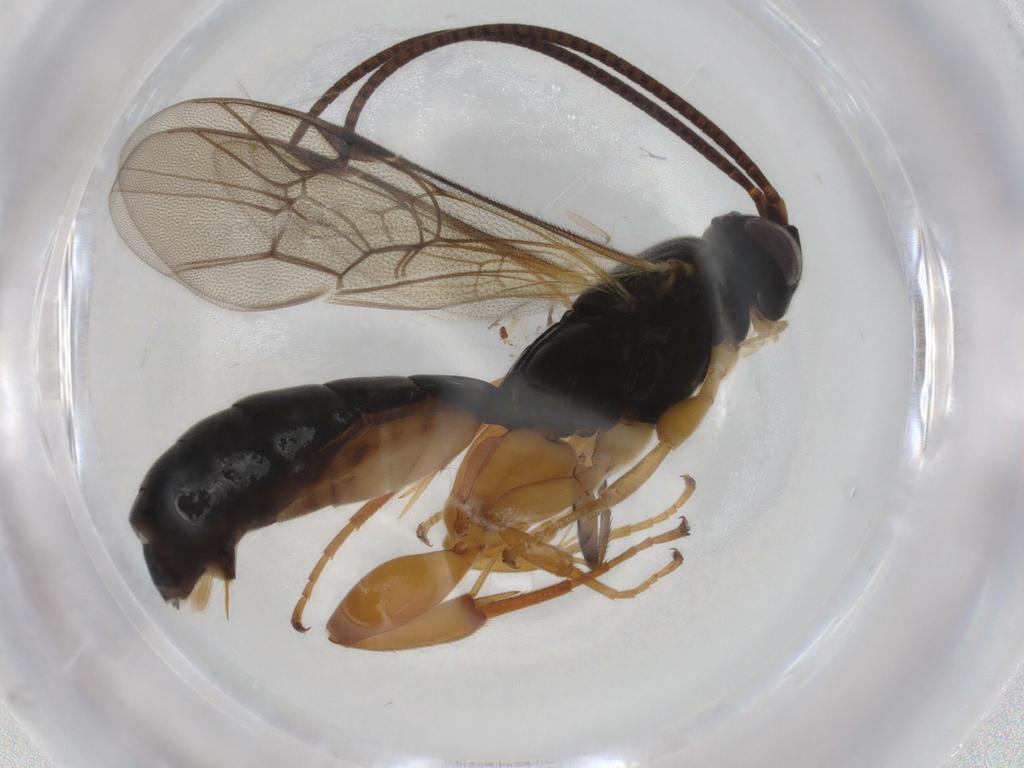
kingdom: Animalia
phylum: Arthropoda
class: Insecta
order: Hymenoptera
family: Ichneumonidae
